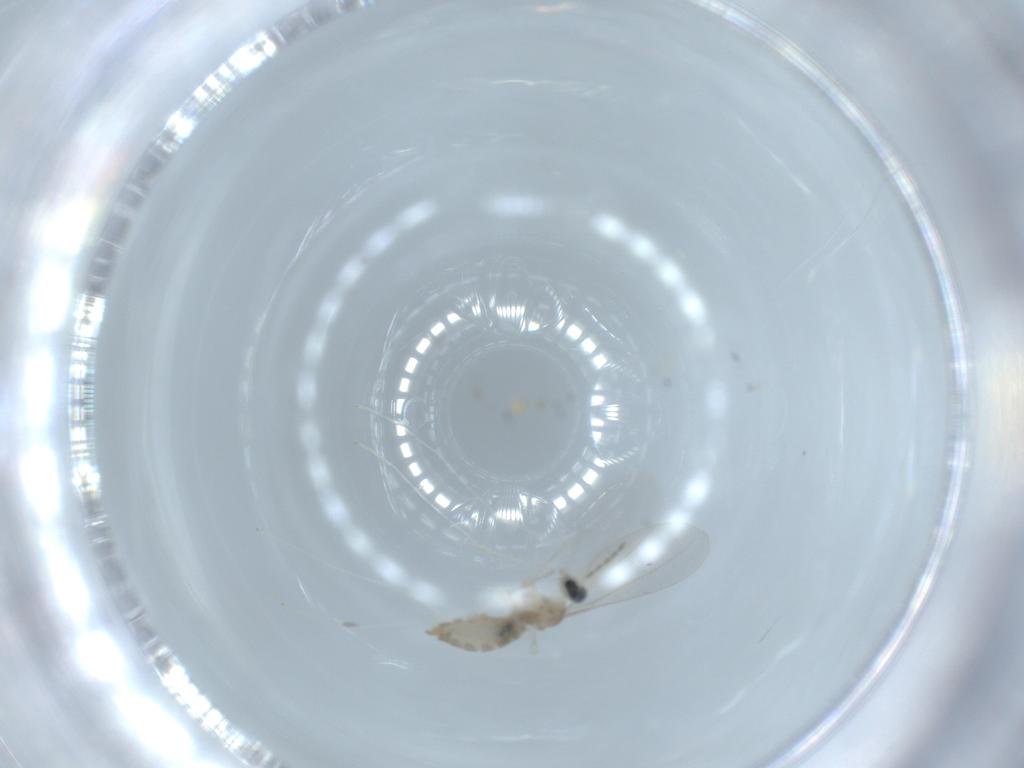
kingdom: Animalia
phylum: Arthropoda
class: Insecta
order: Diptera
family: Cecidomyiidae
